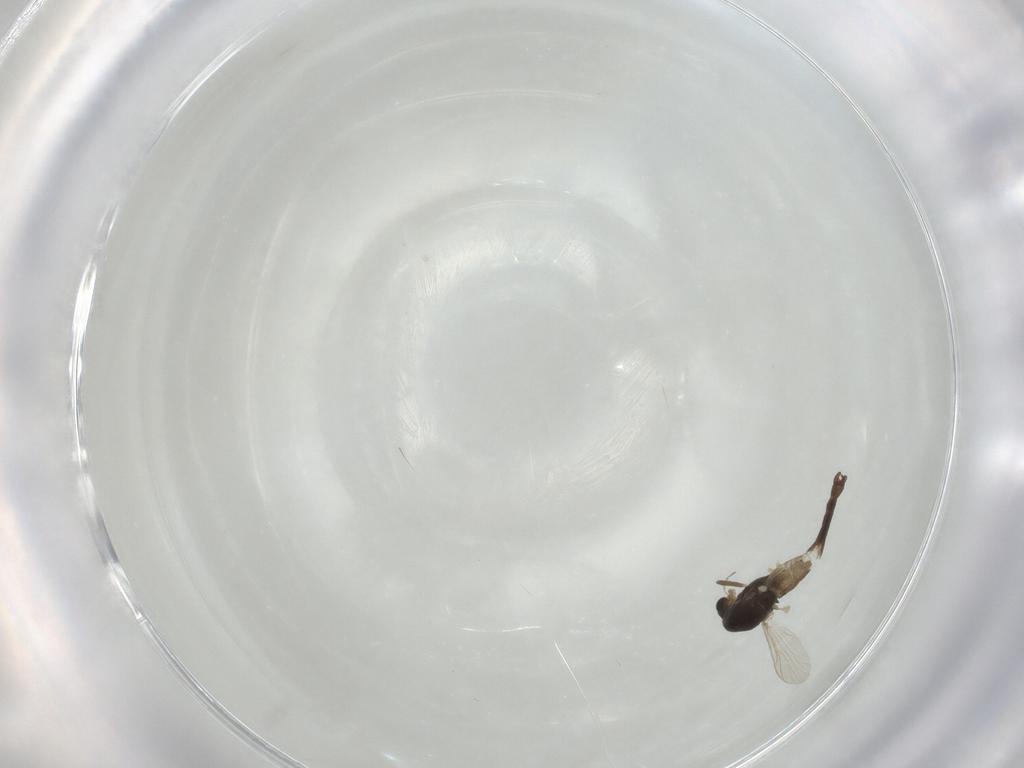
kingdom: Animalia
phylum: Arthropoda
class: Insecta
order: Diptera
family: Chironomidae
